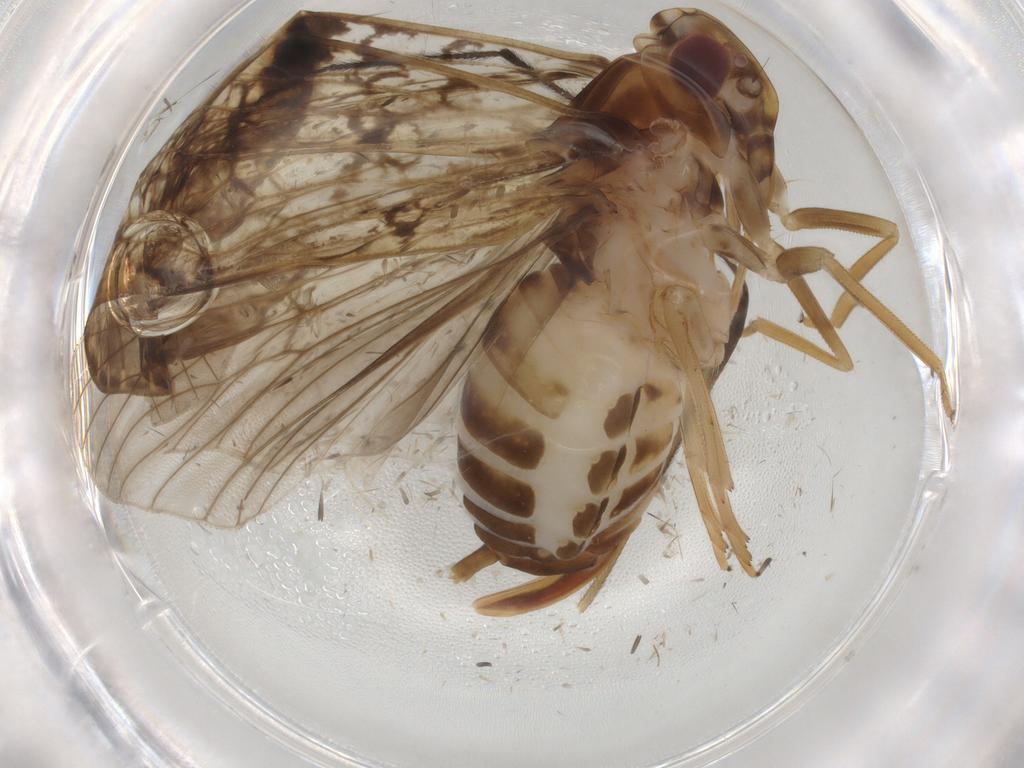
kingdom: Animalia
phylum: Arthropoda
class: Insecta
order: Hemiptera
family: Cixiidae
